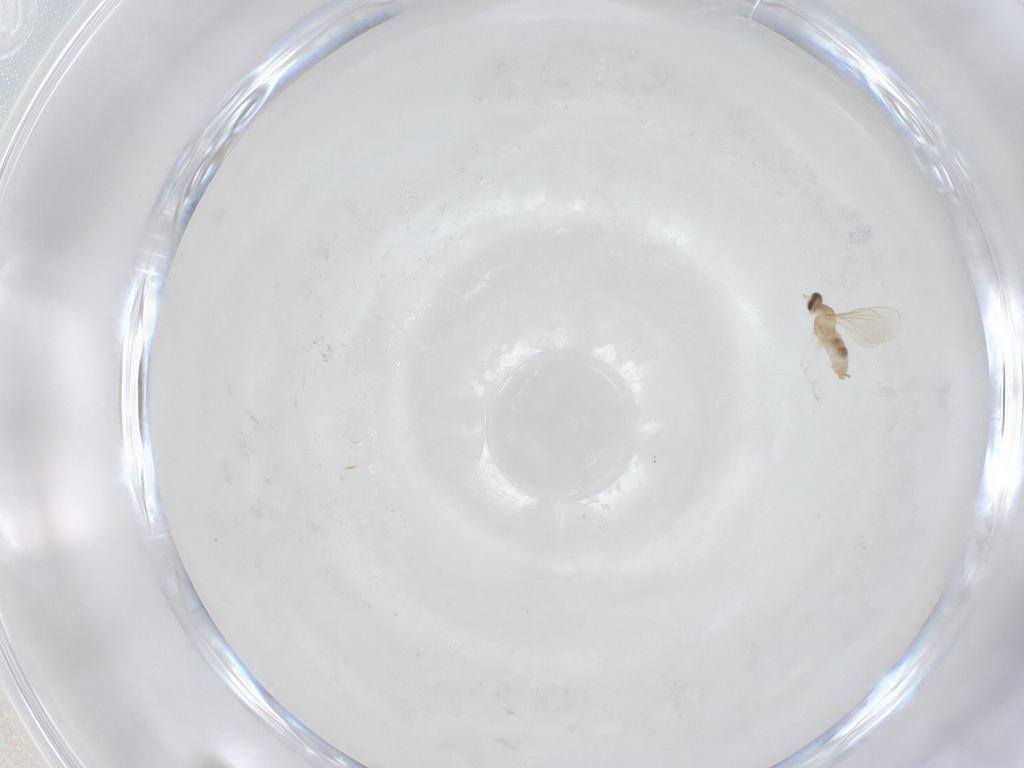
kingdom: Animalia
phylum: Arthropoda
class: Insecta
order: Diptera
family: Cecidomyiidae
